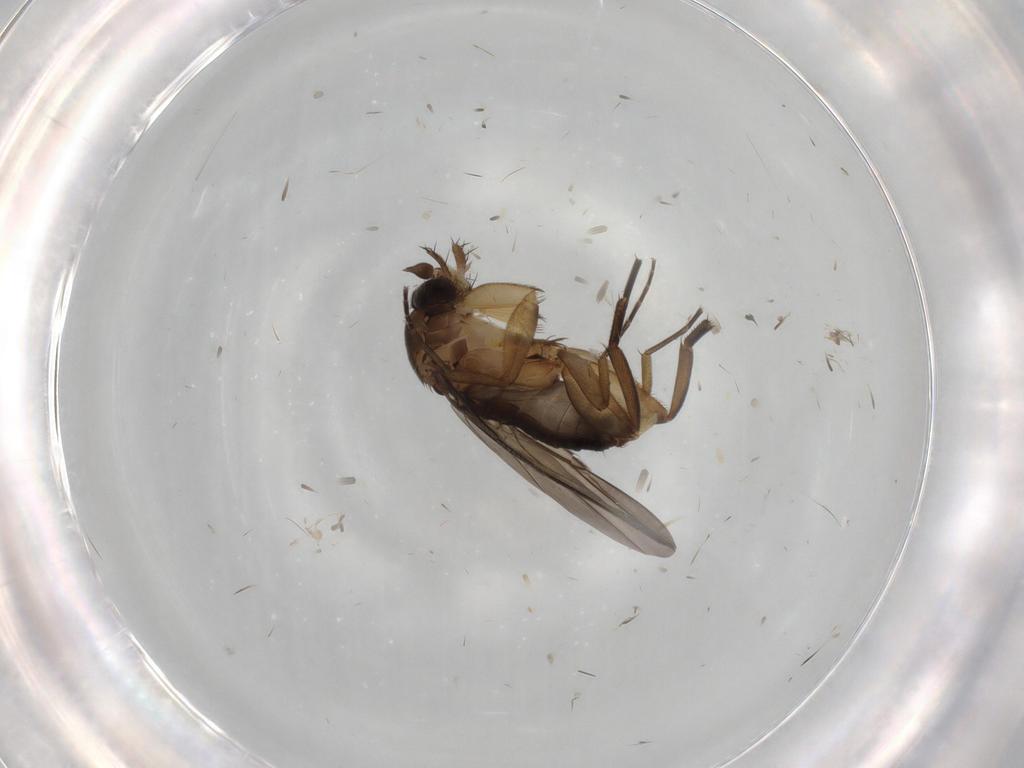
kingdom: Animalia
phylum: Arthropoda
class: Insecta
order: Diptera
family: Phoridae
